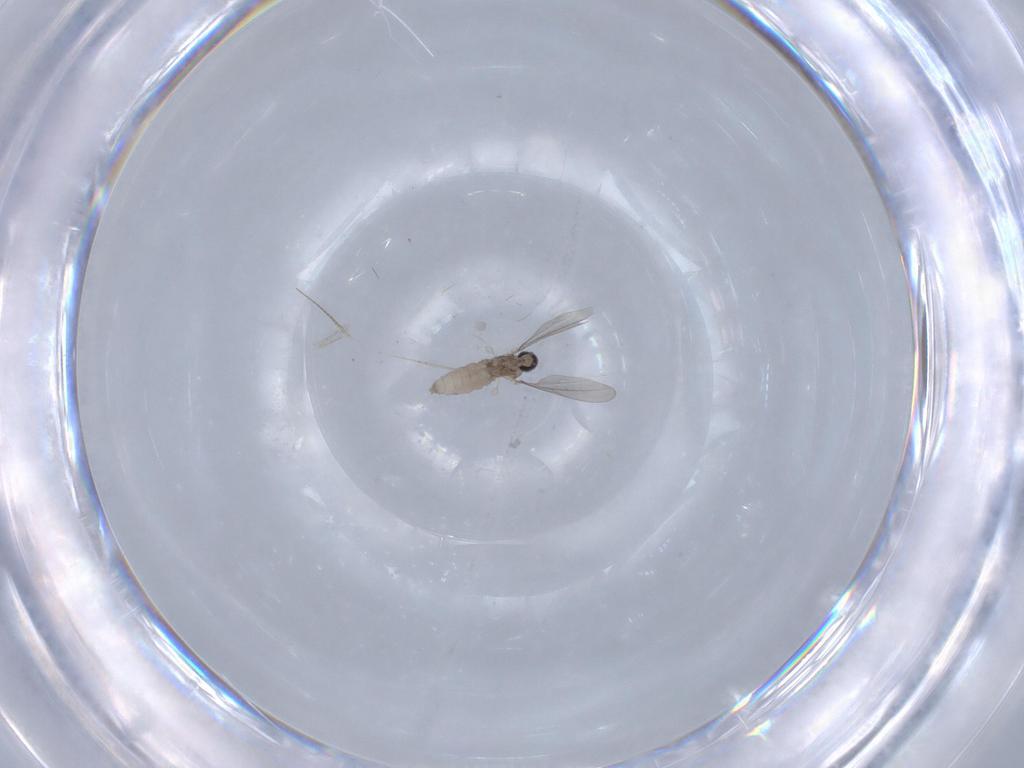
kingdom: Animalia
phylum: Arthropoda
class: Insecta
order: Diptera
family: Cecidomyiidae
